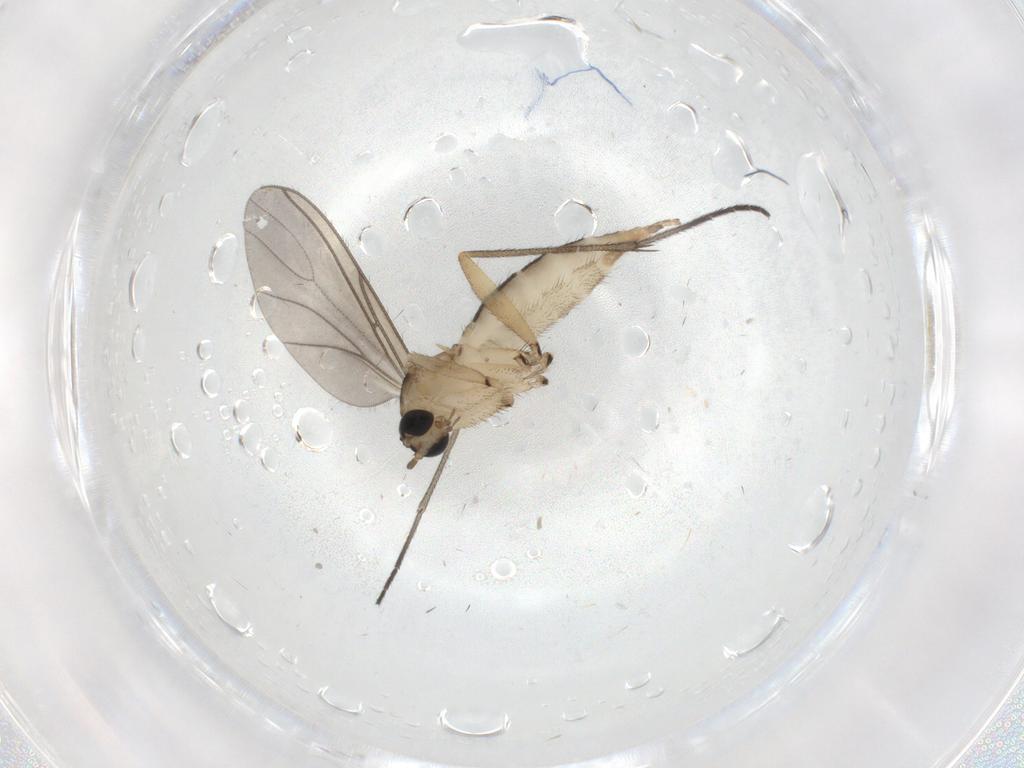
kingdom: Animalia
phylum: Arthropoda
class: Insecta
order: Diptera
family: Sciaridae
